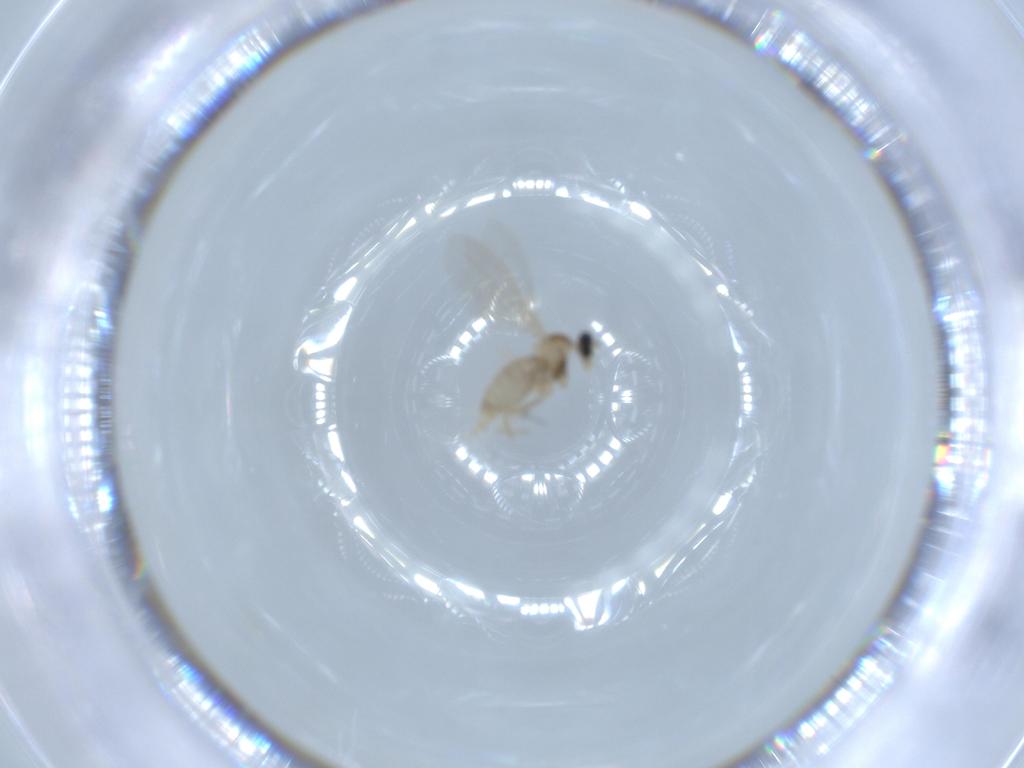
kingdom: Animalia
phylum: Arthropoda
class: Insecta
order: Diptera
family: Cecidomyiidae
